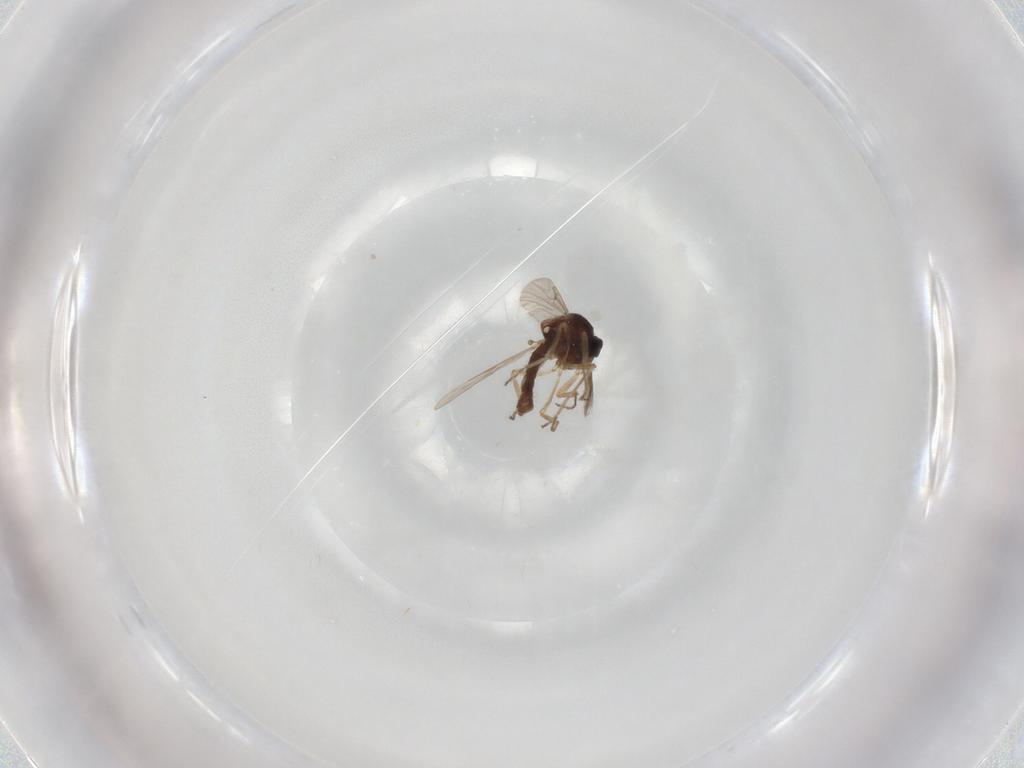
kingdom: Animalia
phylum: Arthropoda
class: Insecta
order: Diptera
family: Ceratopogonidae
